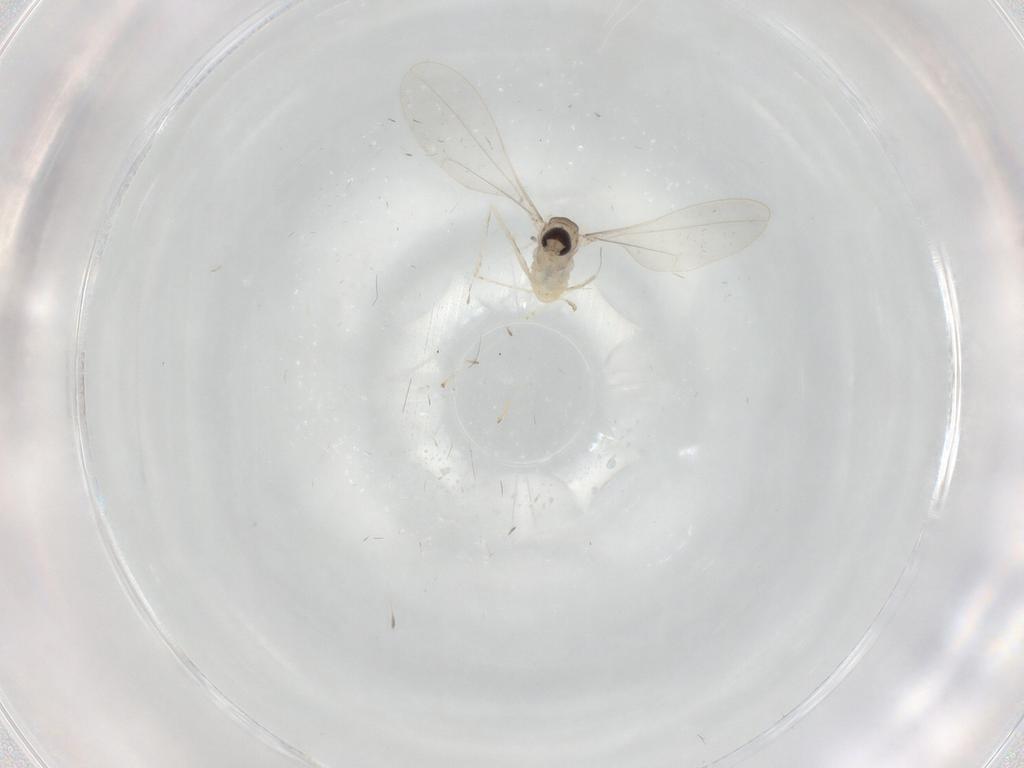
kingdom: Animalia
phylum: Arthropoda
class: Insecta
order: Diptera
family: Cecidomyiidae
